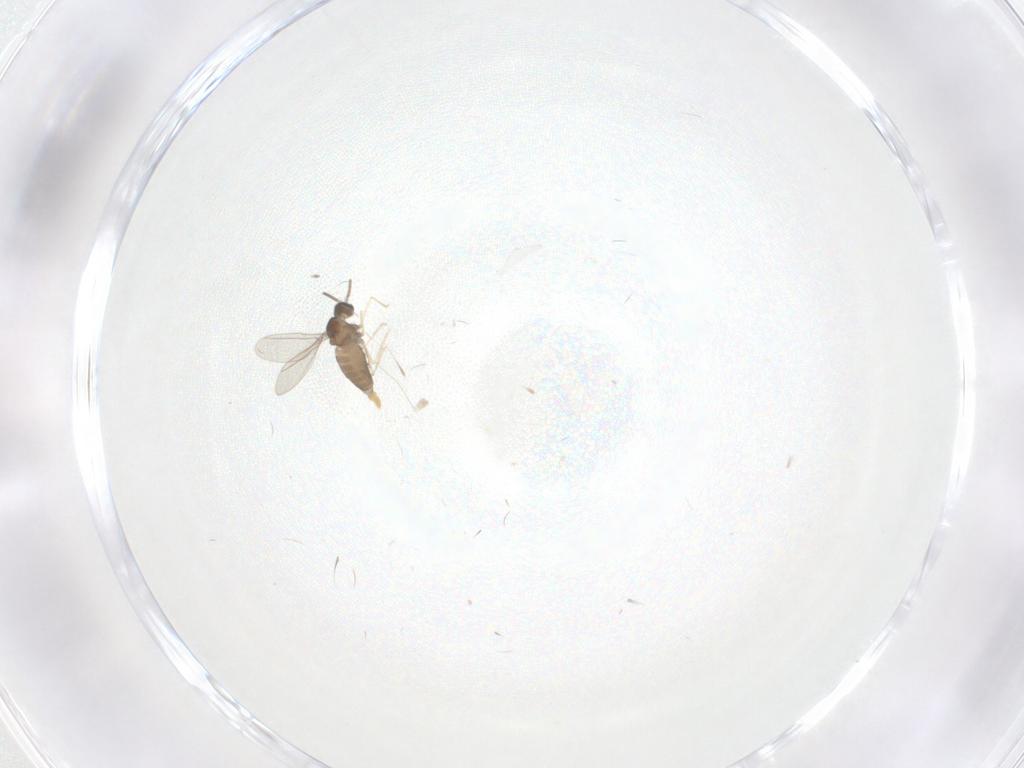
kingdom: Animalia
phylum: Arthropoda
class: Insecta
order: Diptera
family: Cecidomyiidae
